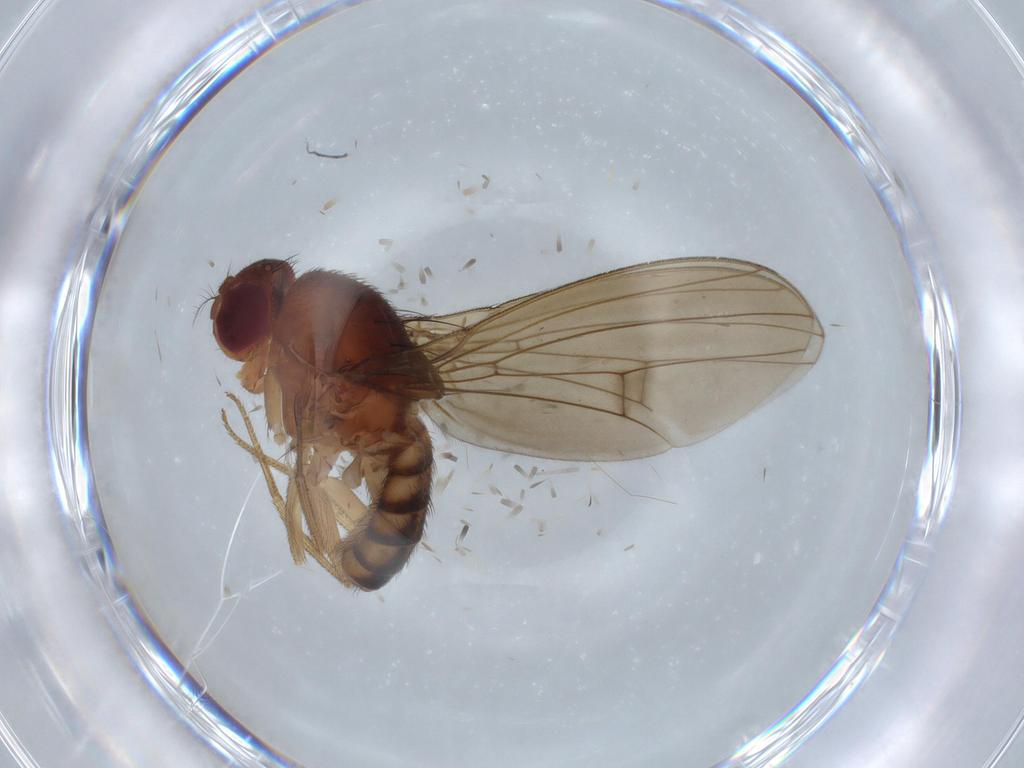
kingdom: Animalia
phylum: Arthropoda
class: Insecta
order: Diptera
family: Drosophilidae
